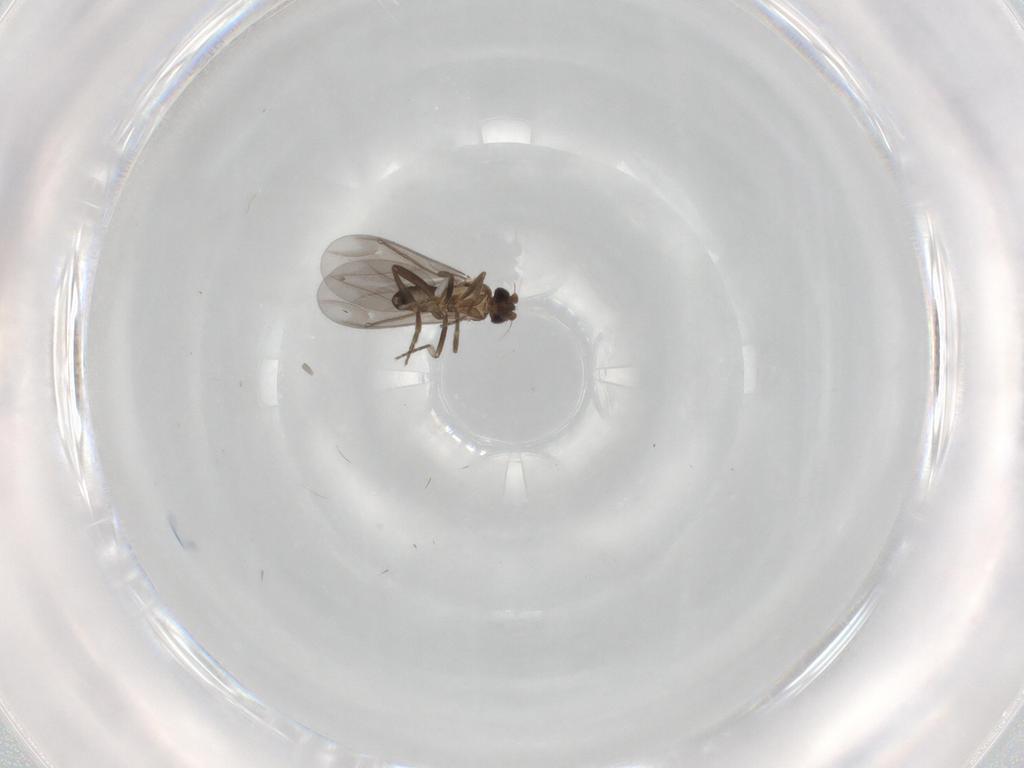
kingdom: Animalia
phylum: Arthropoda
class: Insecta
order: Diptera
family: Phoridae
